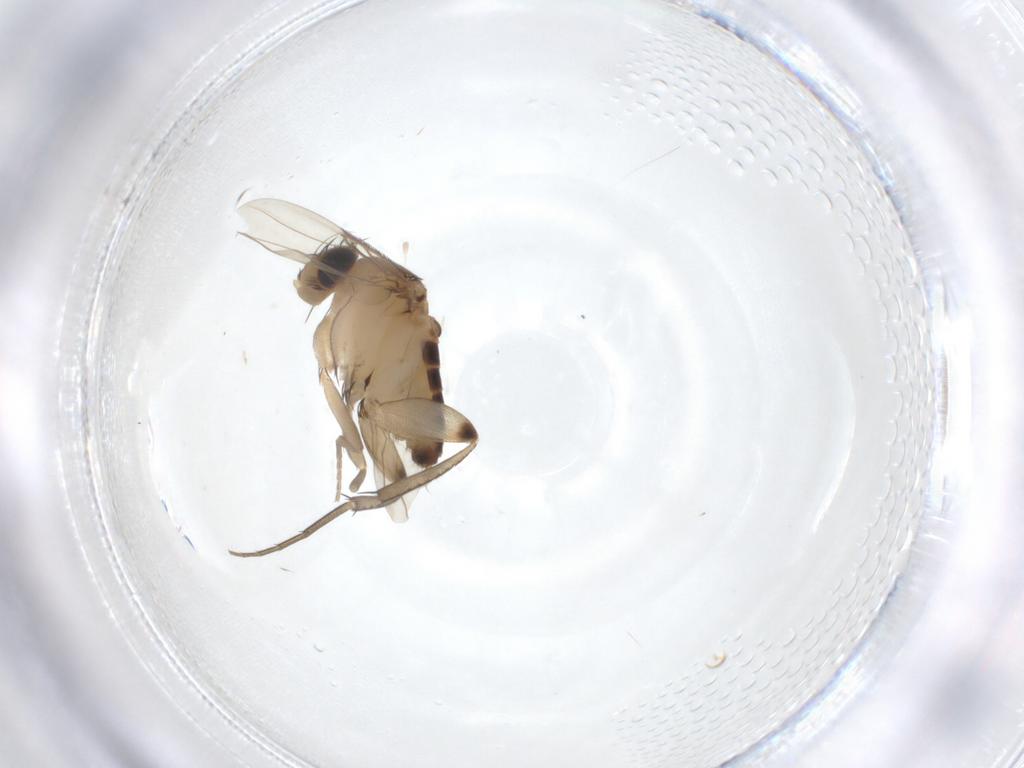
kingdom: Animalia
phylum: Arthropoda
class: Insecta
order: Diptera
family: Phoridae
